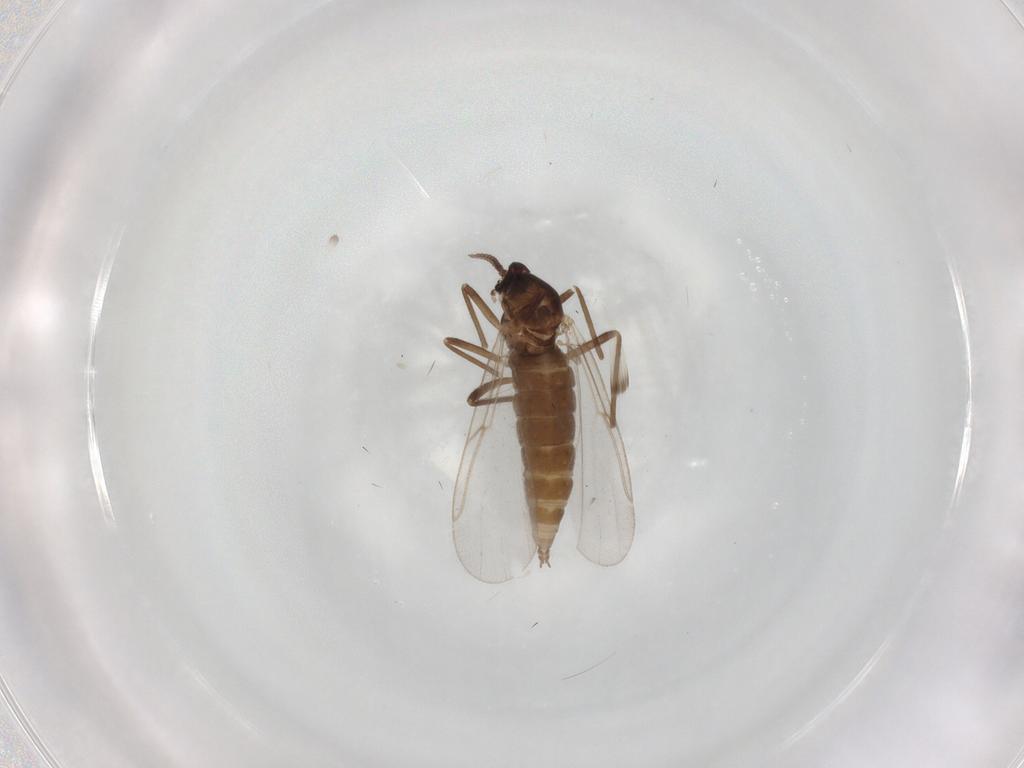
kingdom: Animalia
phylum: Arthropoda
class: Insecta
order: Diptera
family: Cecidomyiidae
